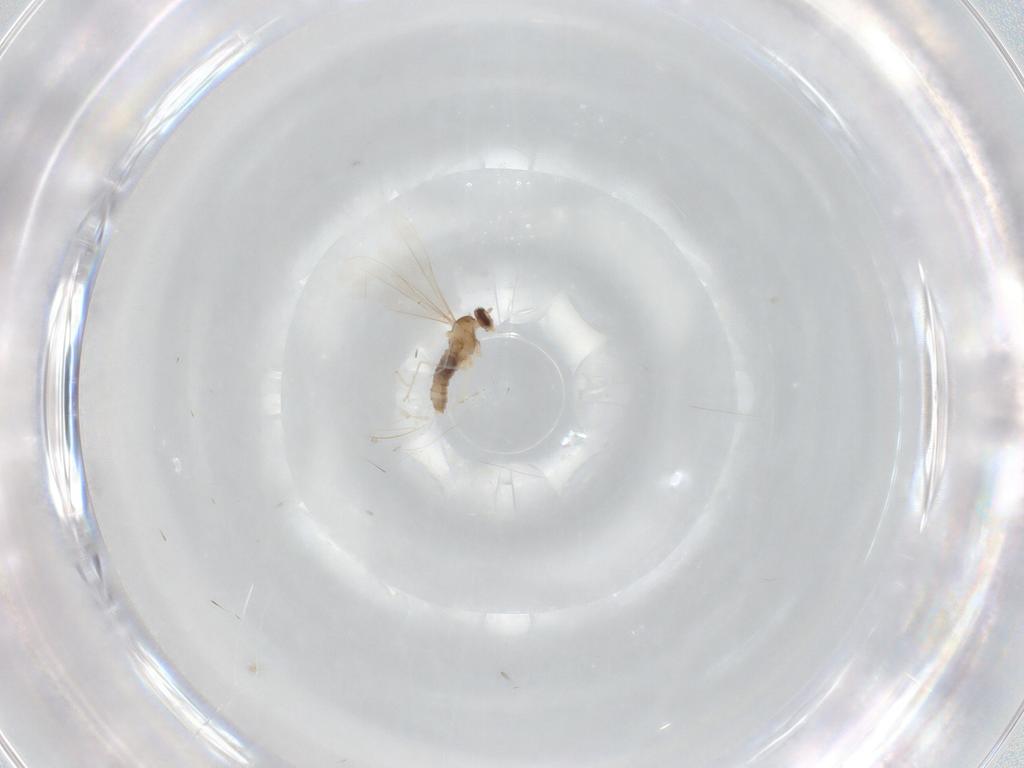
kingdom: Animalia
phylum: Arthropoda
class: Insecta
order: Diptera
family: Cecidomyiidae
